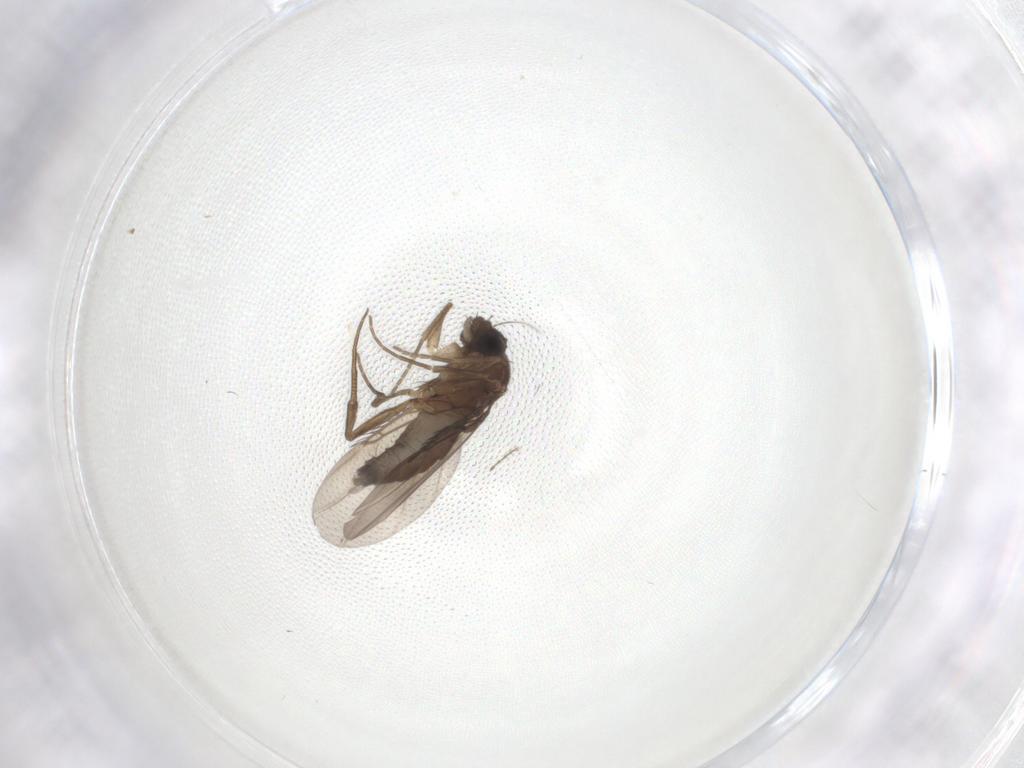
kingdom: Animalia
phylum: Arthropoda
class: Insecta
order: Diptera
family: Phoridae
